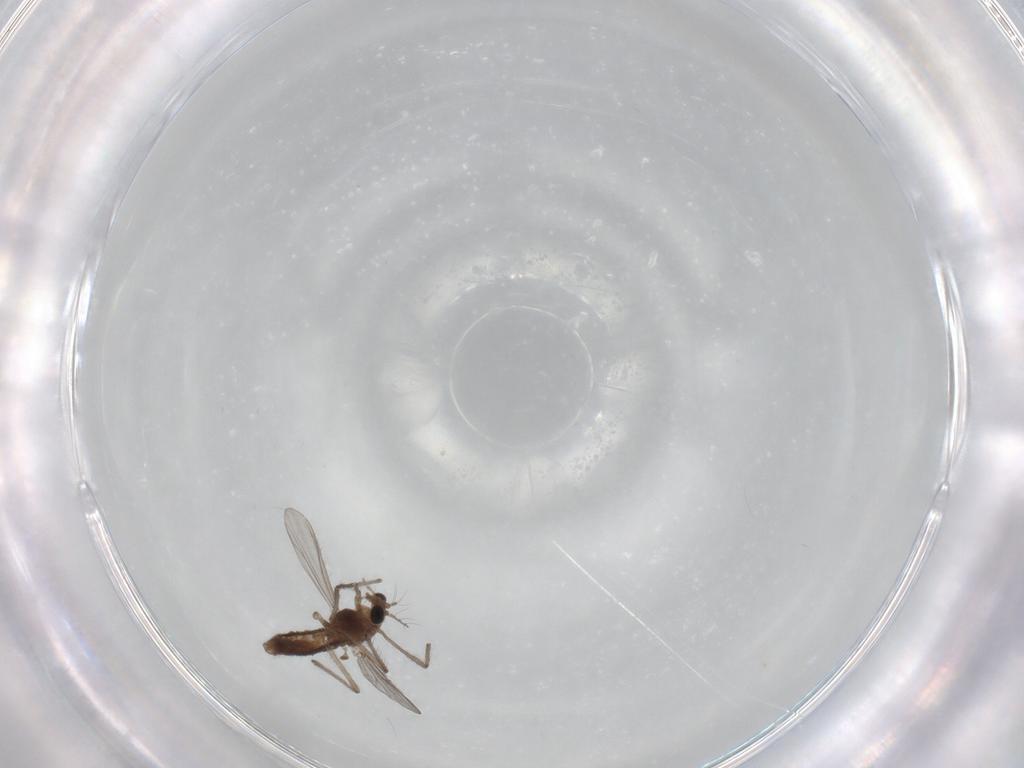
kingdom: Animalia
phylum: Arthropoda
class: Insecta
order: Diptera
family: Chironomidae
